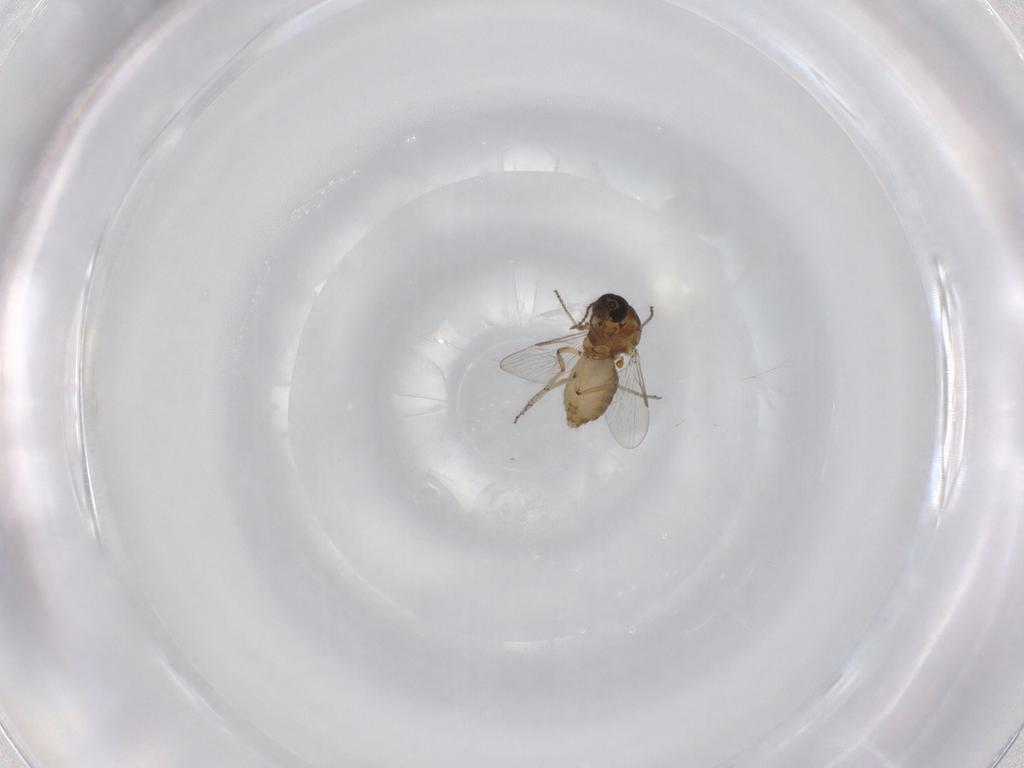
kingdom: Animalia
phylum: Arthropoda
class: Insecta
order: Diptera
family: Ceratopogonidae
